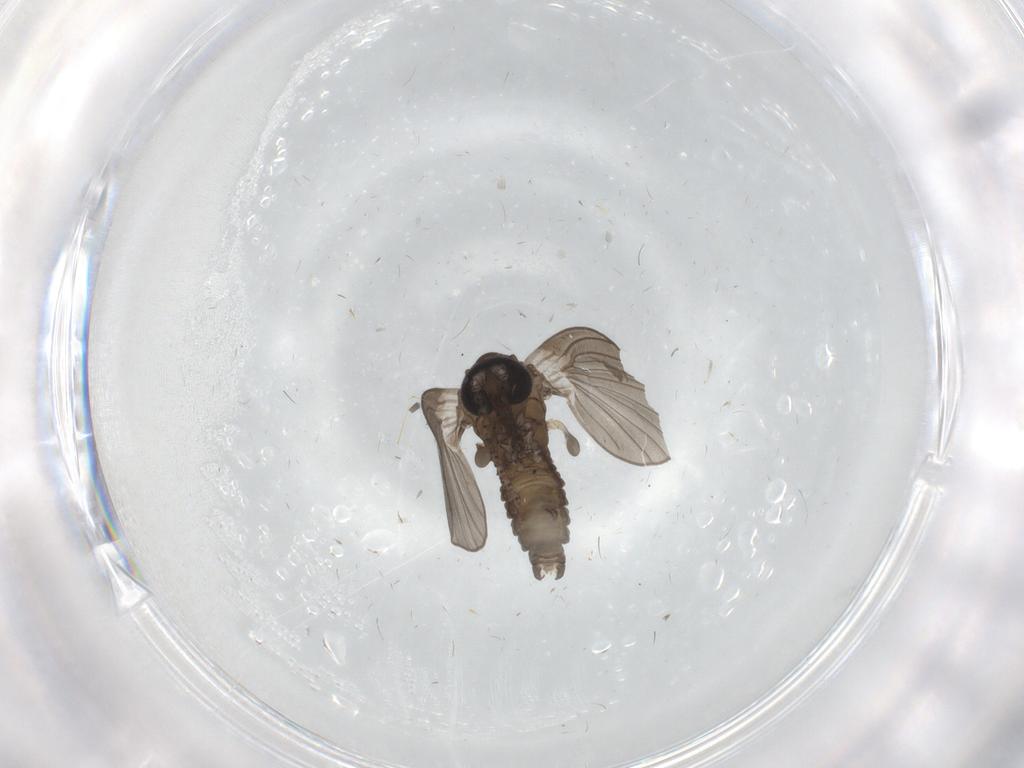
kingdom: Animalia
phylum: Arthropoda
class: Insecta
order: Diptera
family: Chironomidae
